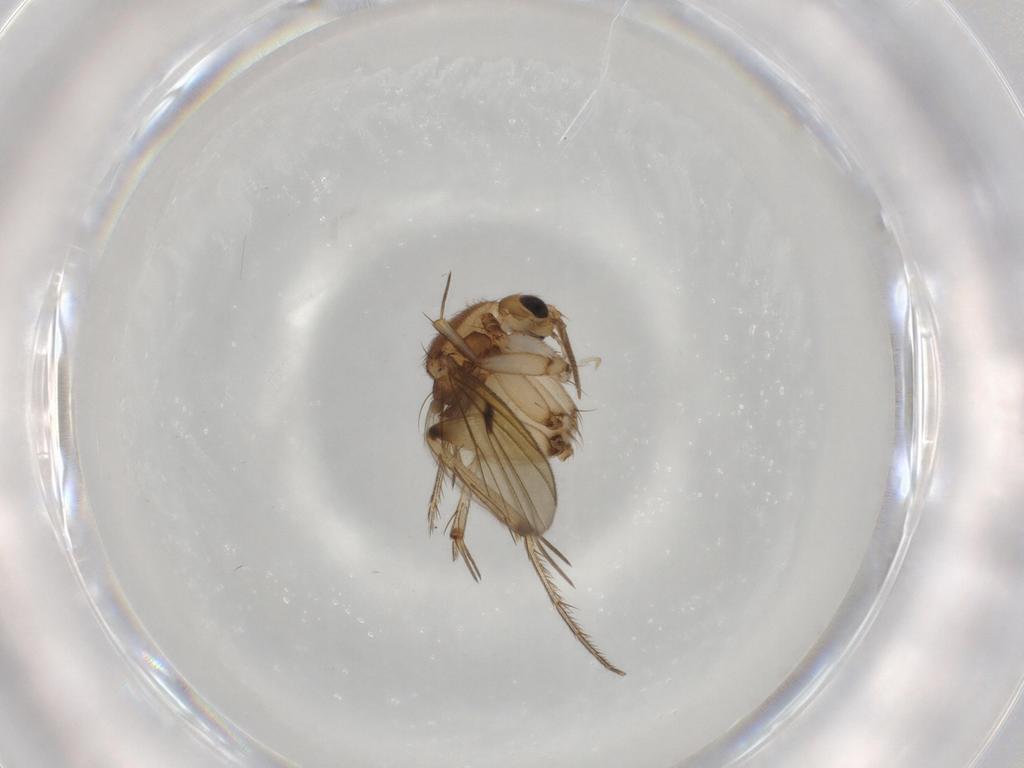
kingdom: Animalia
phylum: Arthropoda
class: Insecta
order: Diptera
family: Mycetophilidae
